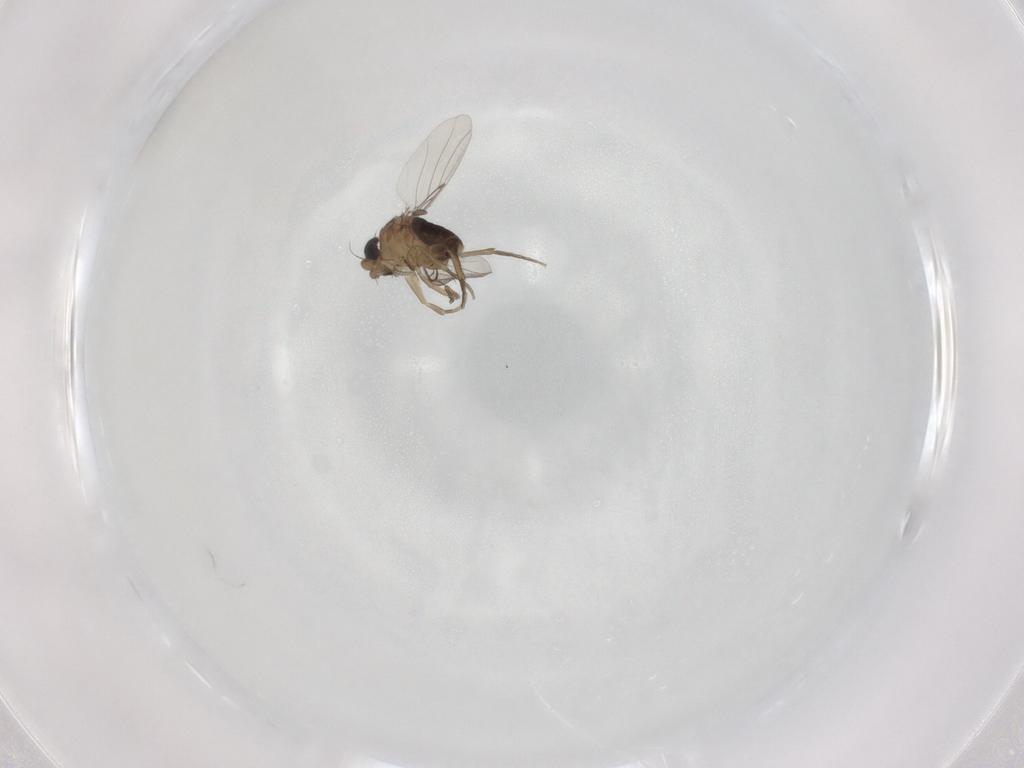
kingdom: Animalia
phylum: Arthropoda
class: Insecta
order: Diptera
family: Phoridae
